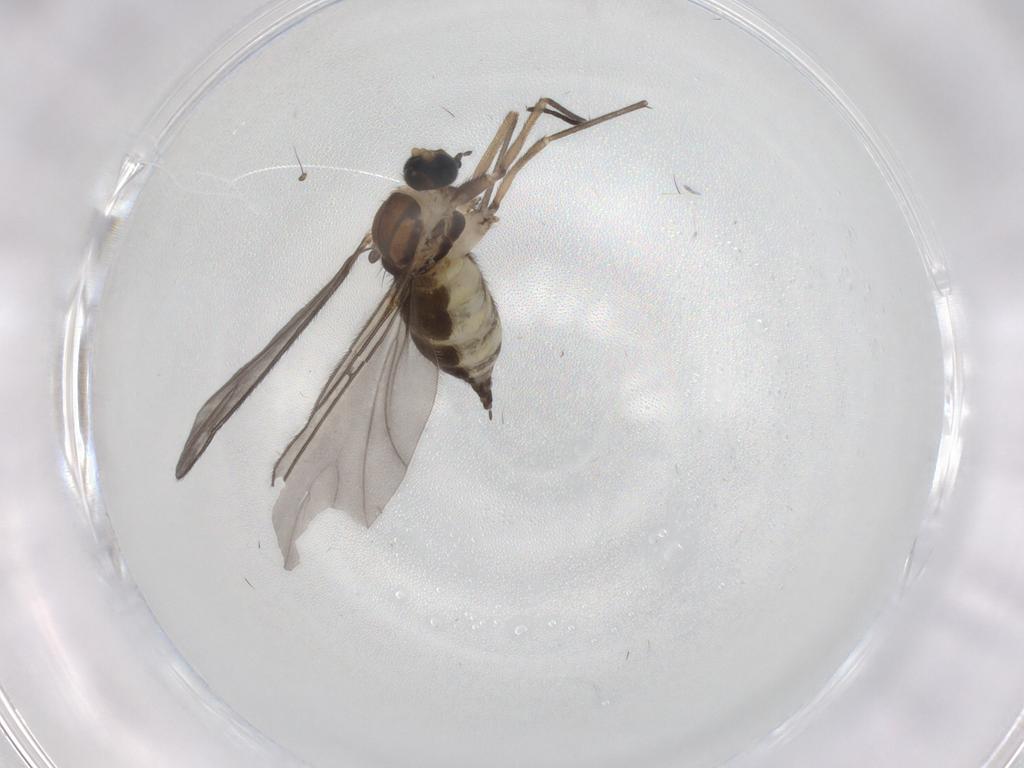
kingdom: Animalia
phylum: Arthropoda
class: Insecta
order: Diptera
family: Sciaridae
